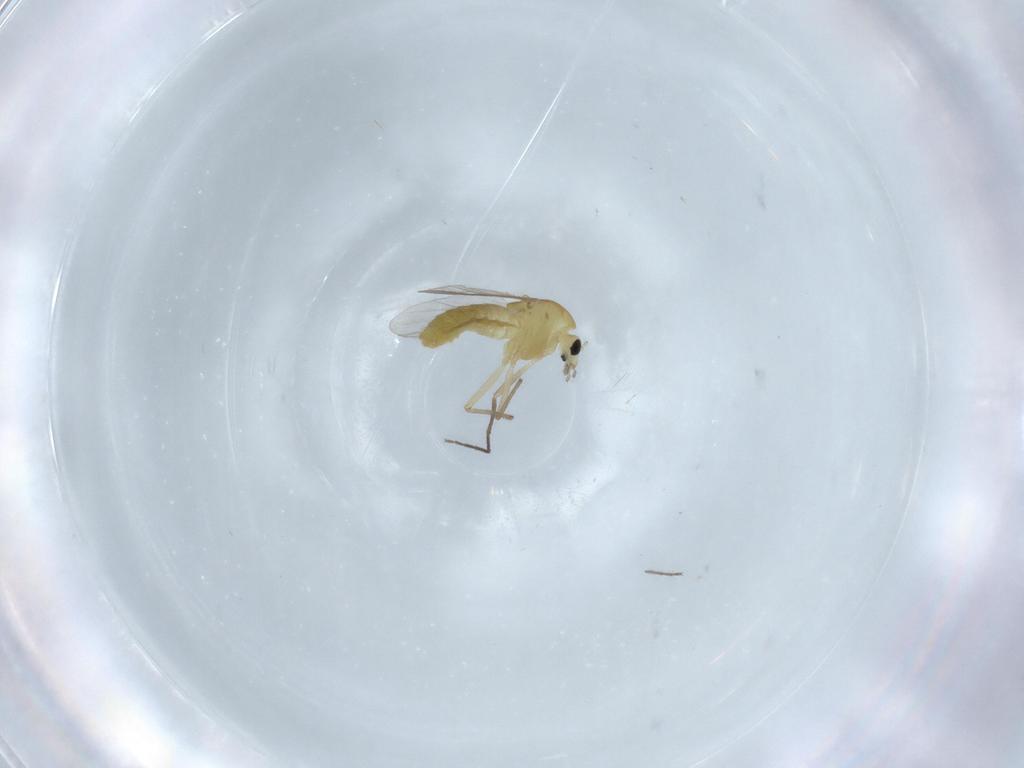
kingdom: Animalia
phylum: Arthropoda
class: Insecta
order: Diptera
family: Chironomidae
